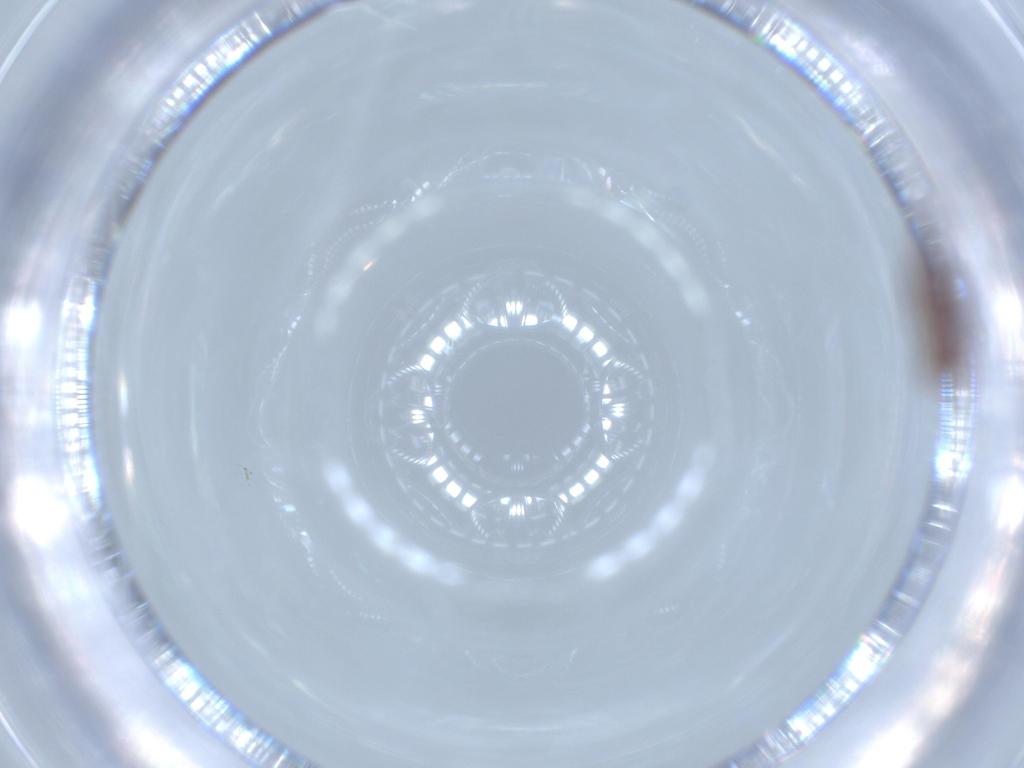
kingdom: Animalia
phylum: Arthropoda
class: Insecta
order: Coleoptera
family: Staphylinidae
